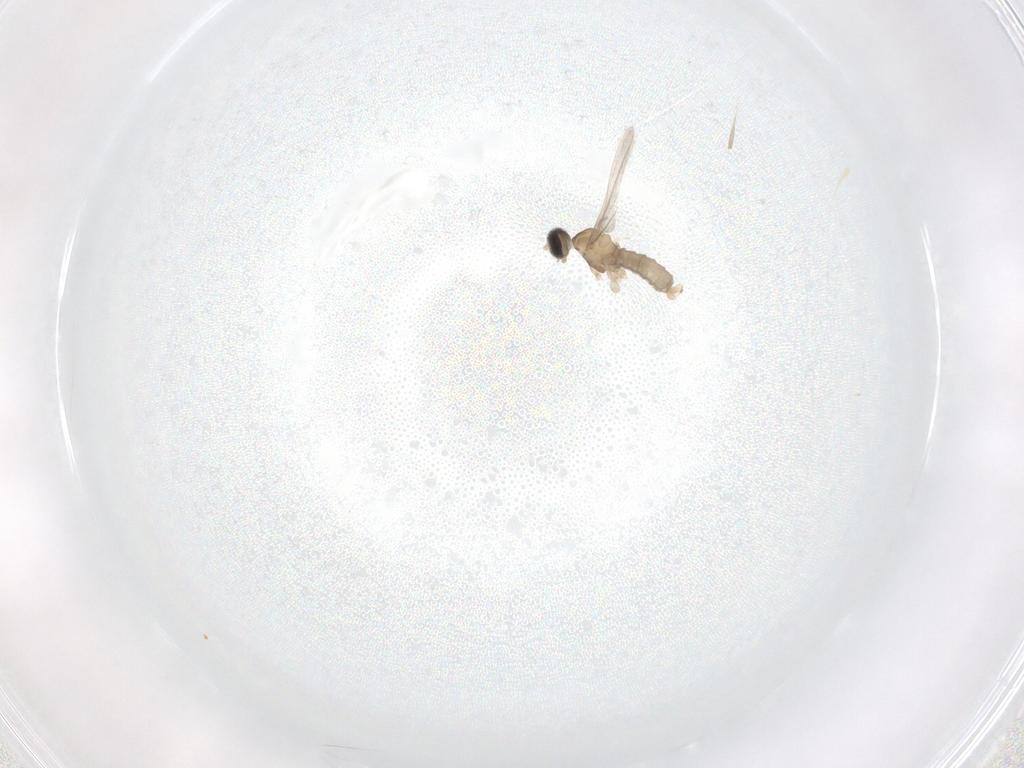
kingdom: Animalia
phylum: Arthropoda
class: Insecta
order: Diptera
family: Cecidomyiidae
